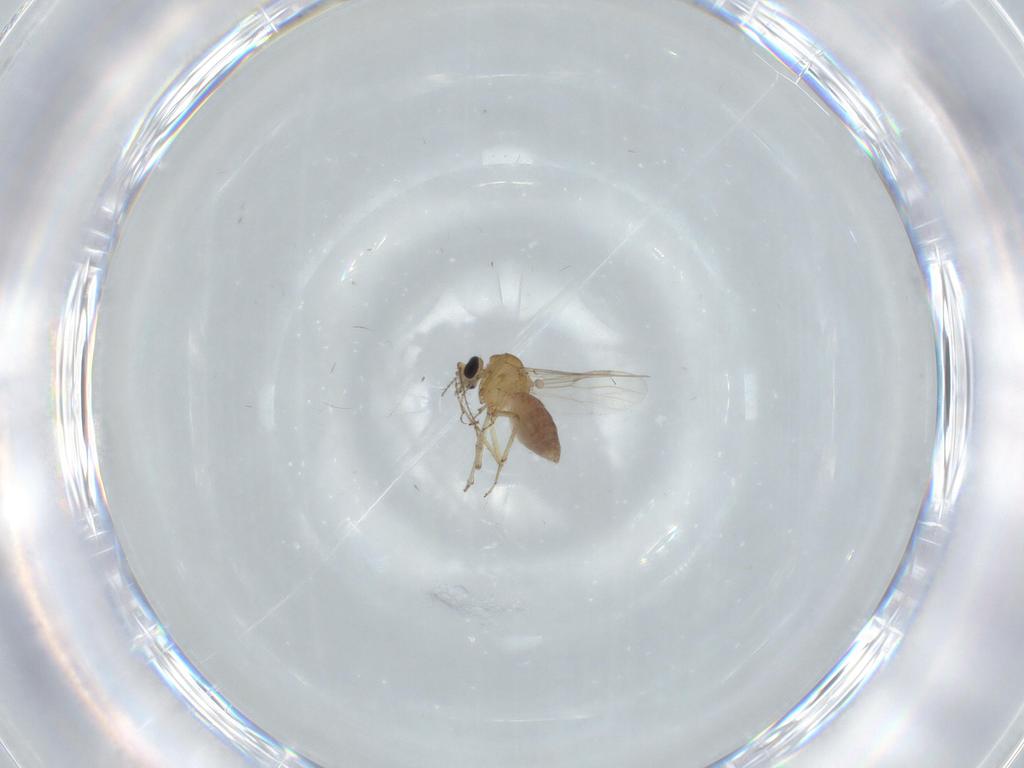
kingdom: Animalia
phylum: Arthropoda
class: Insecta
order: Diptera
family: Ceratopogonidae
